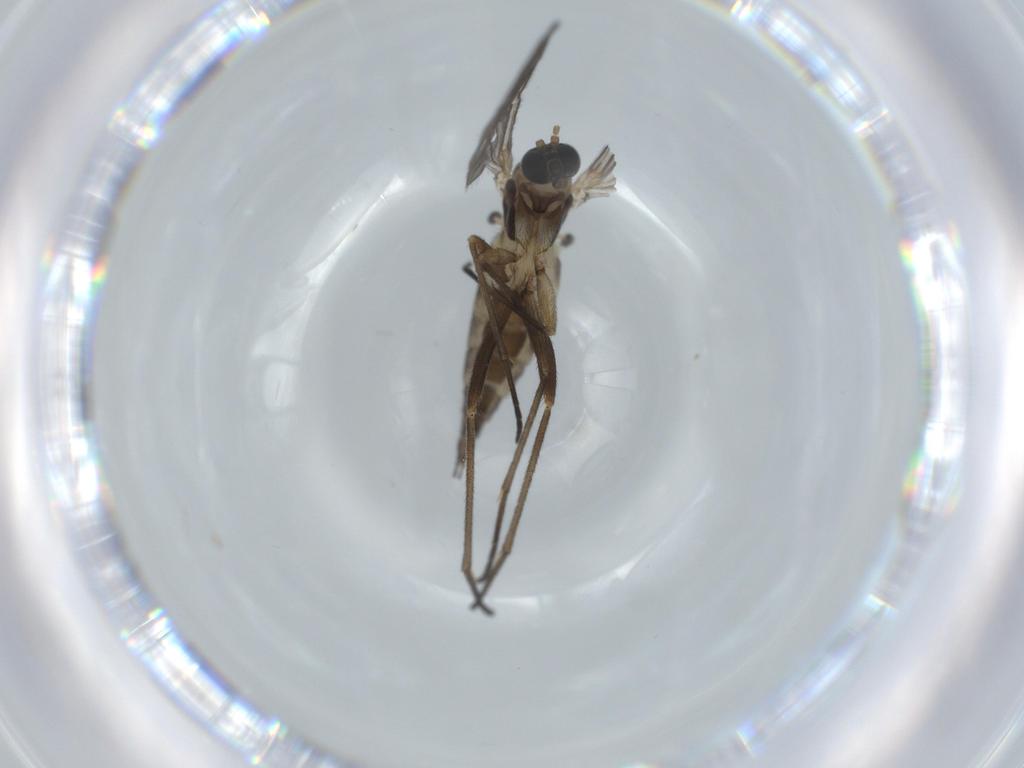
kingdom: Animalia
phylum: Arthropoda
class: Insecta
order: Diptera
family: Sciaridae
